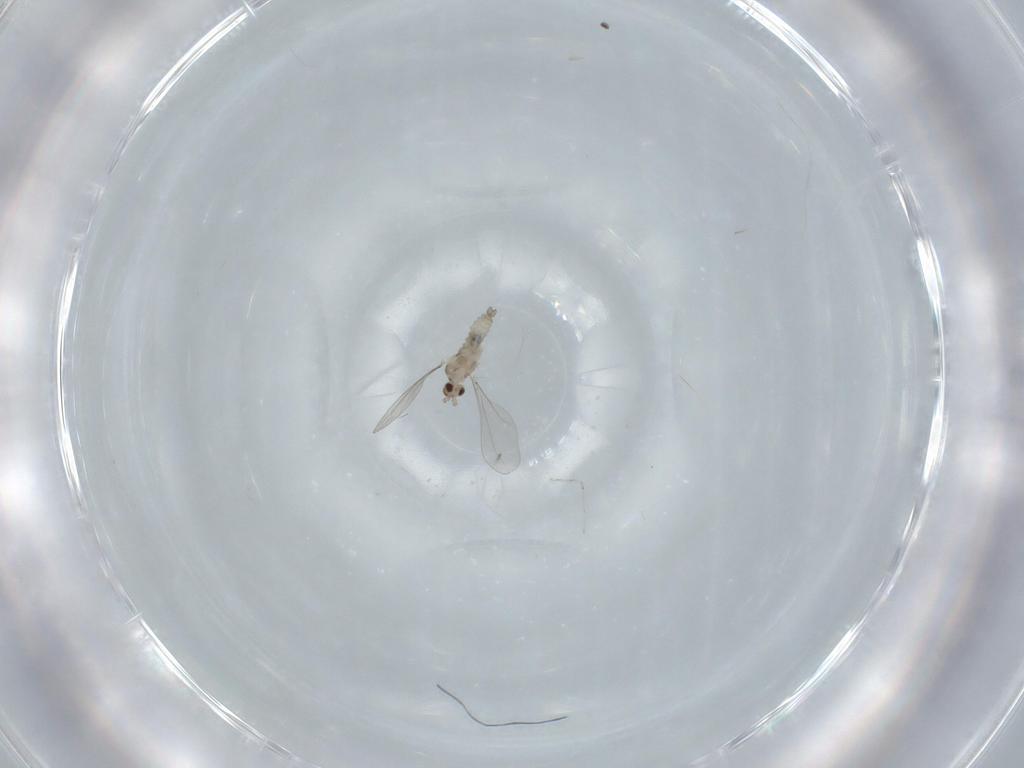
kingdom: Animalia
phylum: Arthropoda
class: Insecta
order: Diptera
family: Cecidomyiidae
